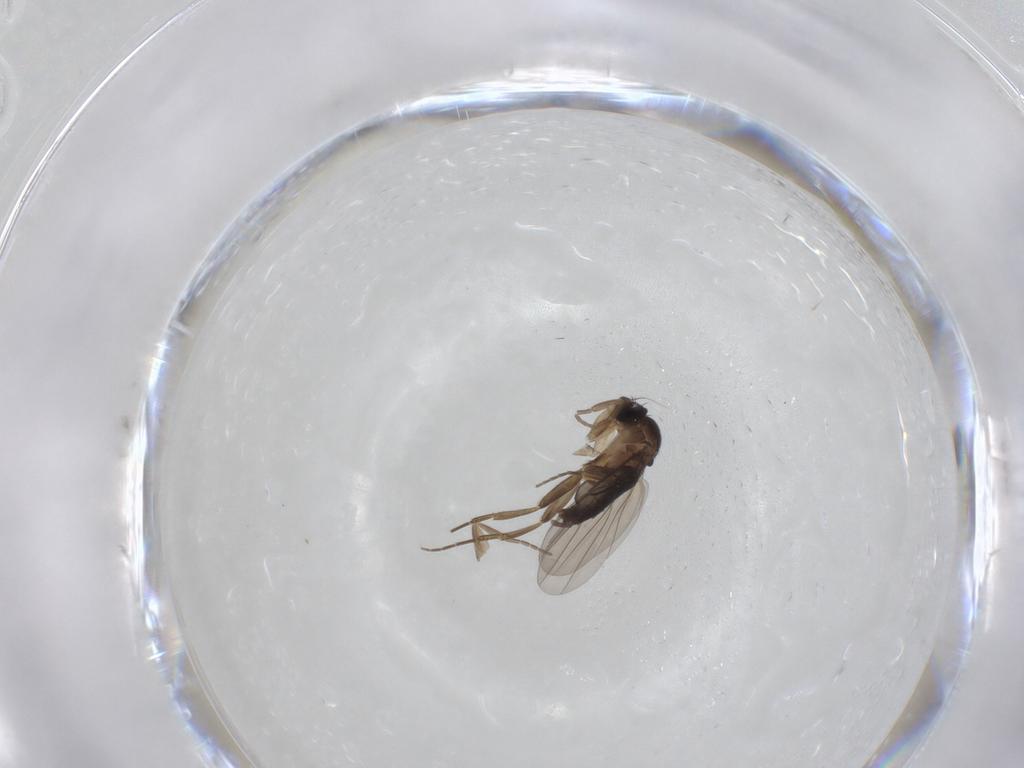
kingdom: Animalia
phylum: Arthropoda
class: Insecta
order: Diptera
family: Phoridae
